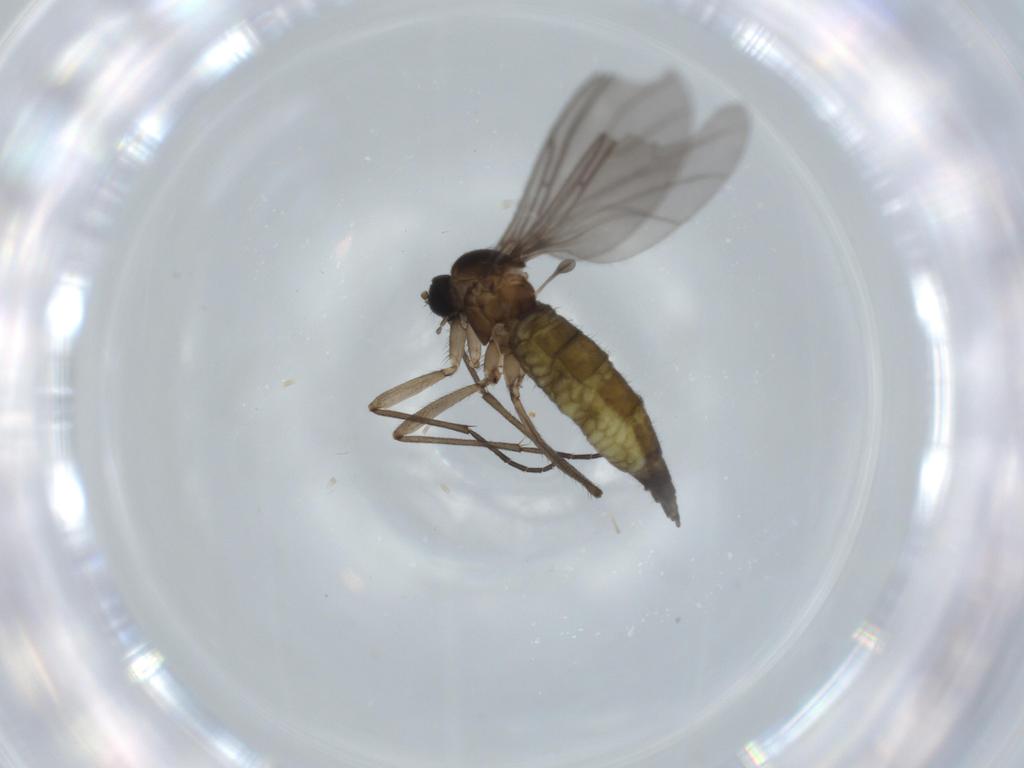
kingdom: Animalia
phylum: Arthropoda
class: Insecta
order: Diptera
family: Sciaridae
